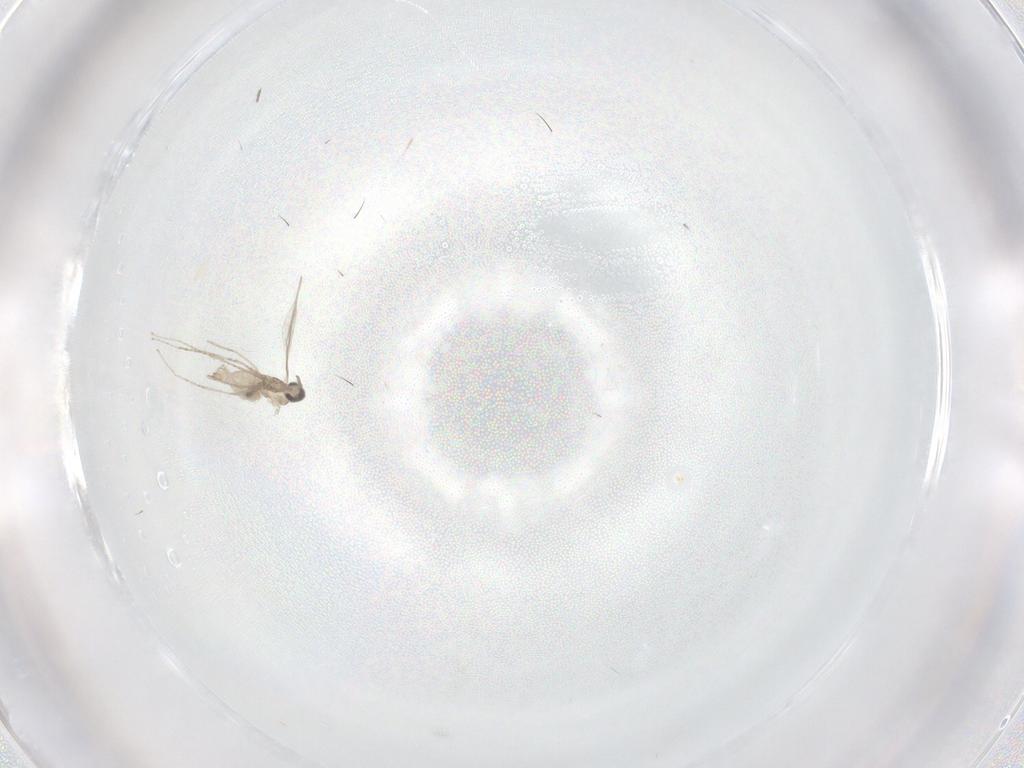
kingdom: Animalia
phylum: Arthropoda
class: Insecta
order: Diptera
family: Cecidomyiidae
